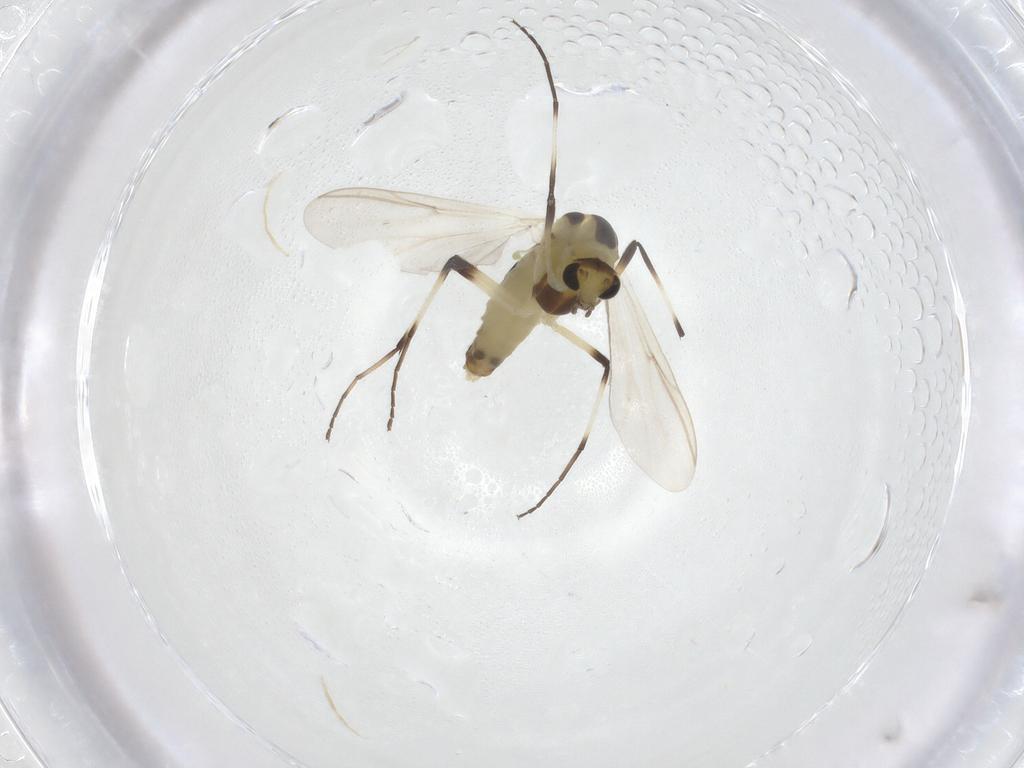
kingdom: Animalia
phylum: Arthropoda
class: Insecta
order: Diptera
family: Chironomidae
